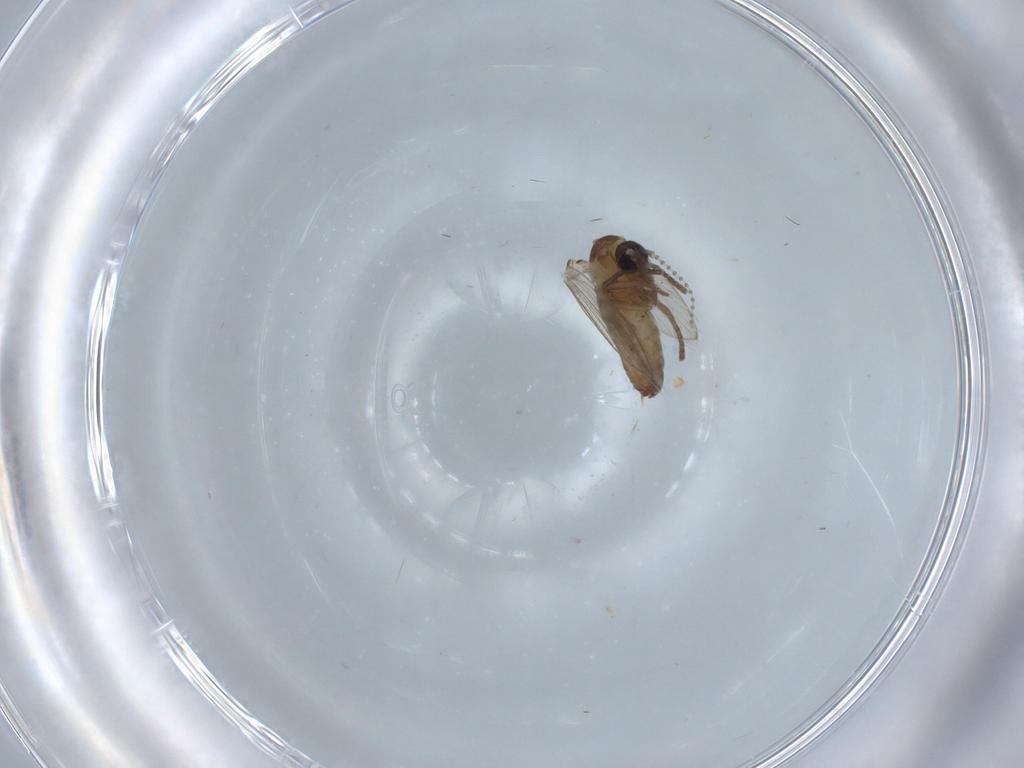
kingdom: Animalia
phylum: Arthropoda
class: Insecta
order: Diptera
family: Psychodidae
